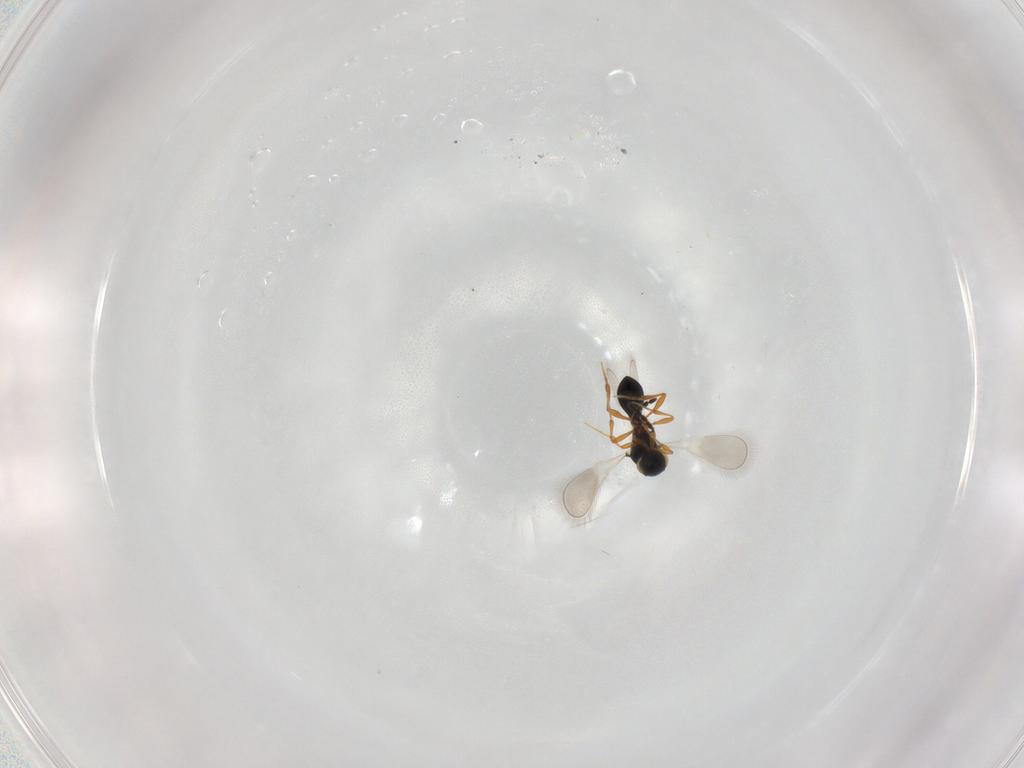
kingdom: Animalia
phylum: Arthropoda
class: Insecta
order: Hymenoptera
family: Platygastridae
